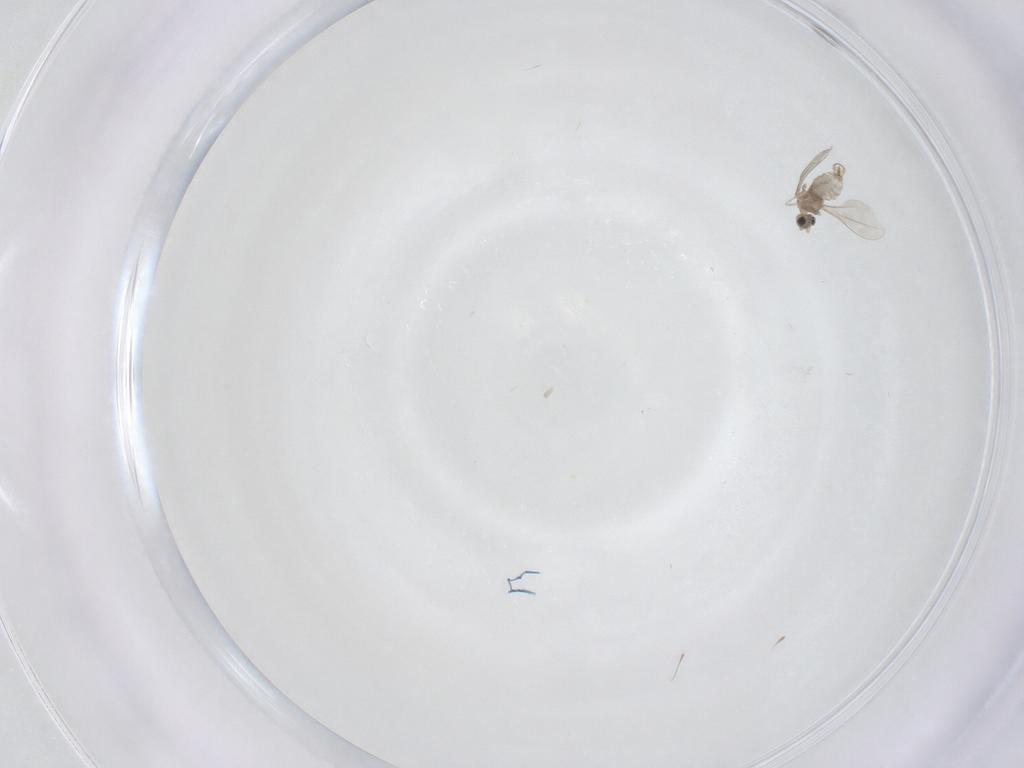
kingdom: Animalia
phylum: Arthropoda
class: Insecta
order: Diptera
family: Cecidomyiidae
